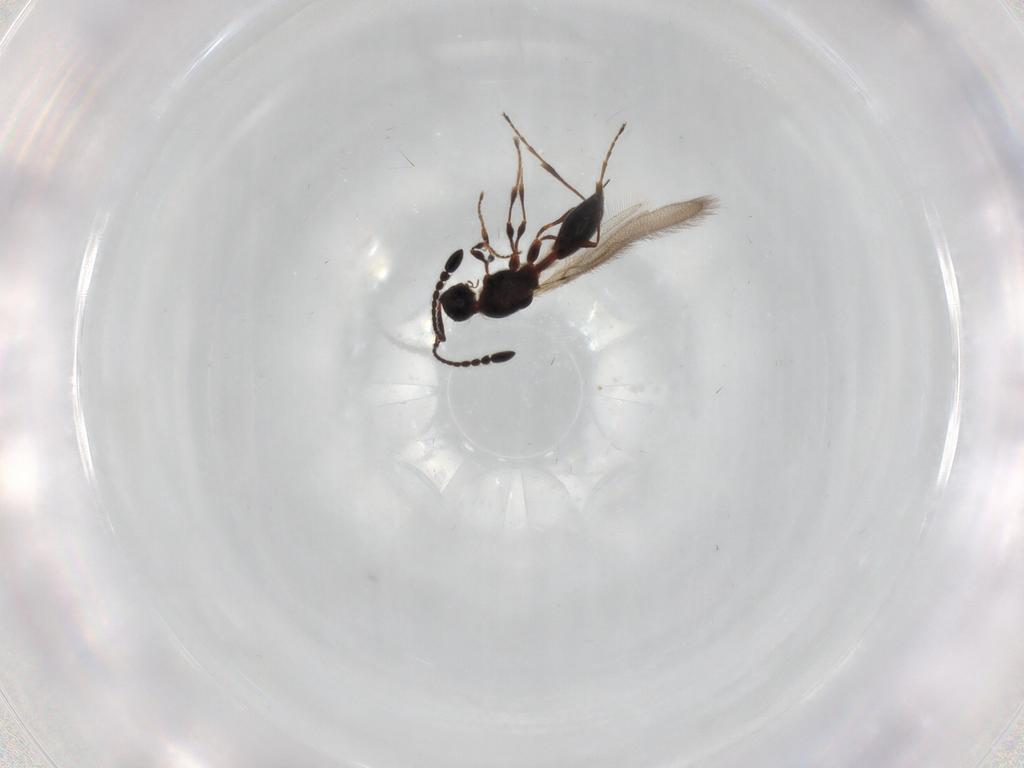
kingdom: Animalia
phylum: Arthropoda
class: Insecta
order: Hymenoptera
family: Diapriidae
